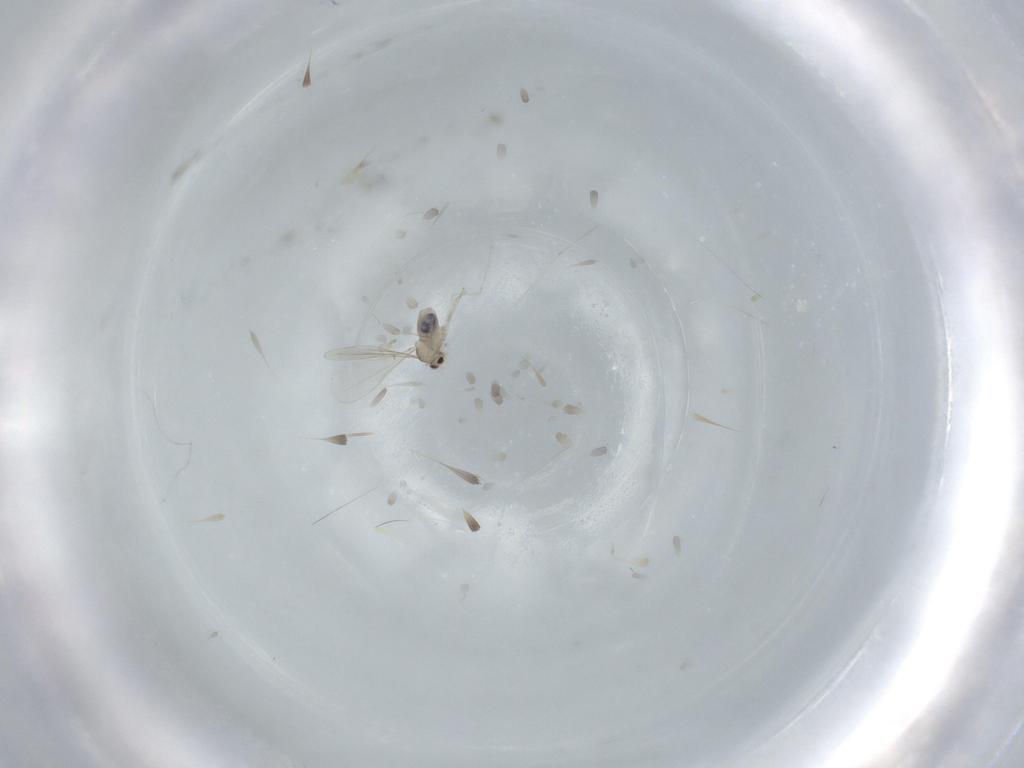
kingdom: Animalia
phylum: Arthropoda
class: Insecta
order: Diptera
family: Cecidomyiidae
